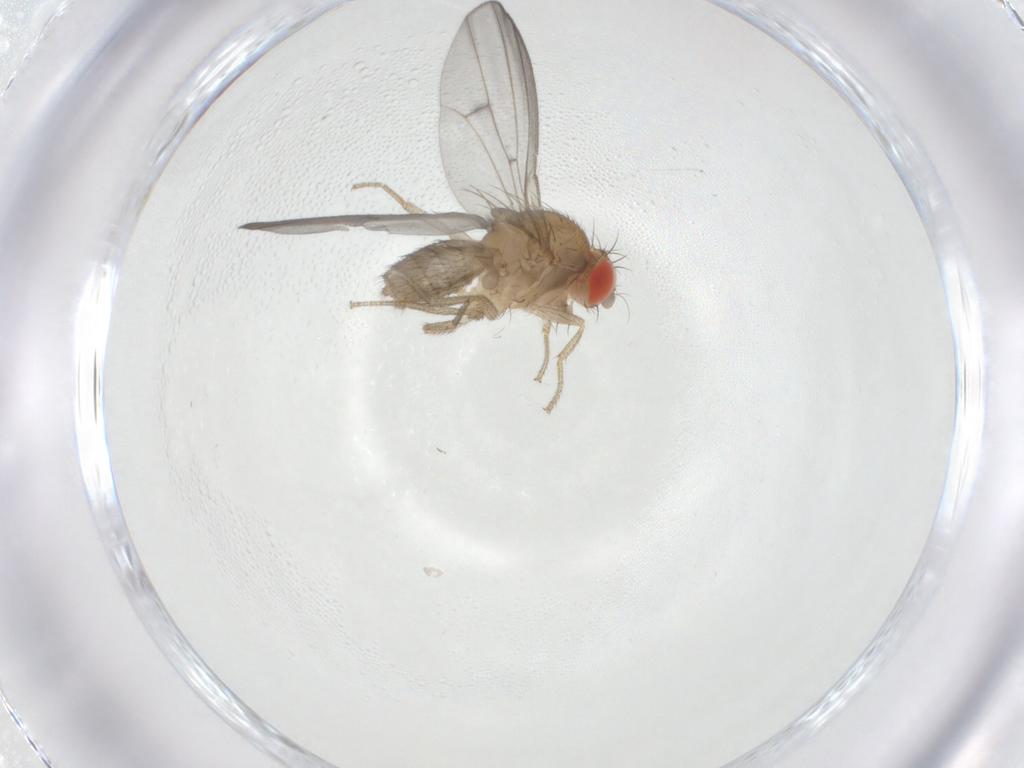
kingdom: Animalia
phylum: Arthropoda
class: Insecta
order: Diptera
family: Drosophilidae
